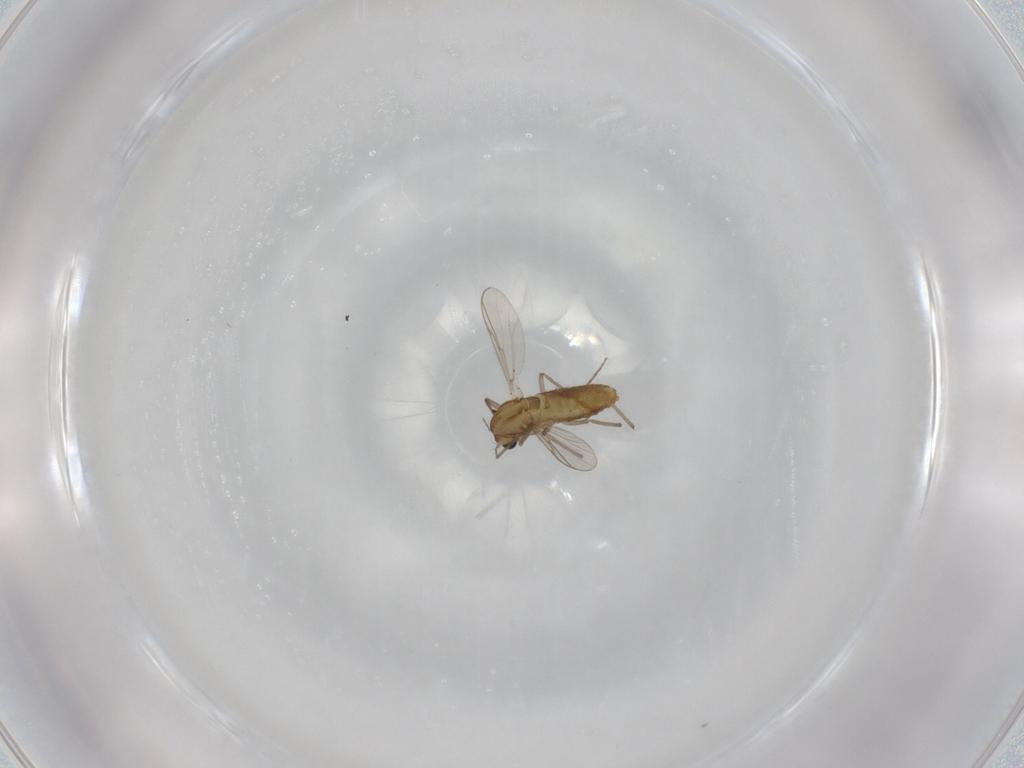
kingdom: Animalia
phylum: Arthropoda
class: Insecta
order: Diptera
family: Chironomidae
